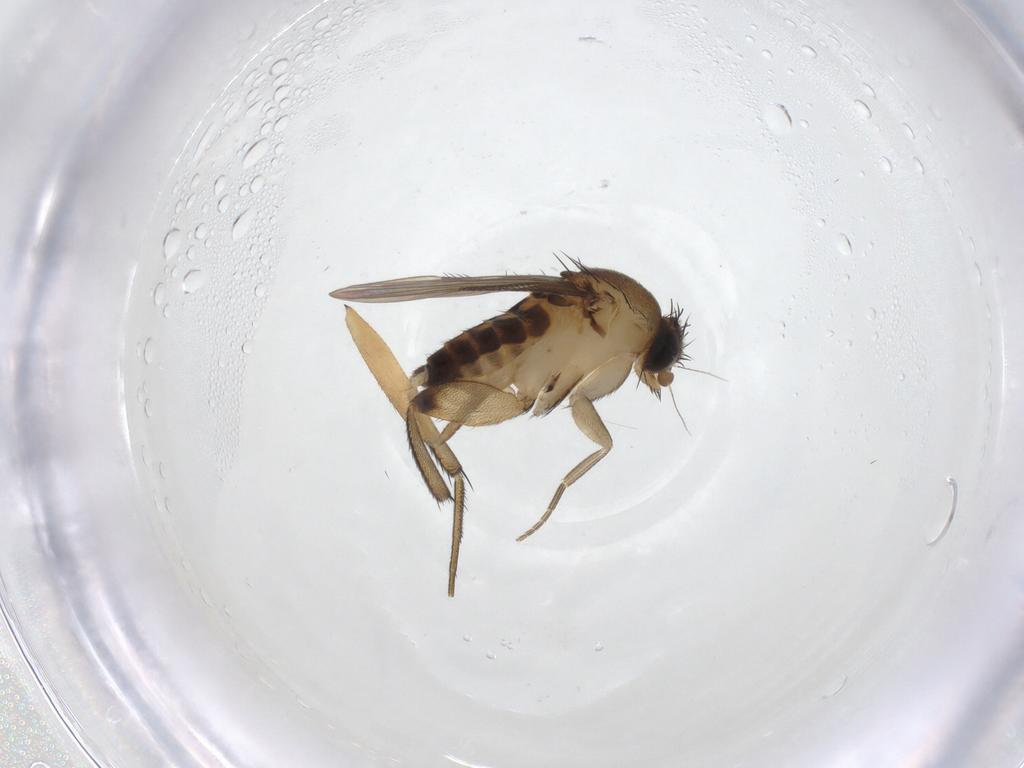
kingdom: Animalia
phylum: Arthropoda
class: Insecta
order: Diptera
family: Phoridae
